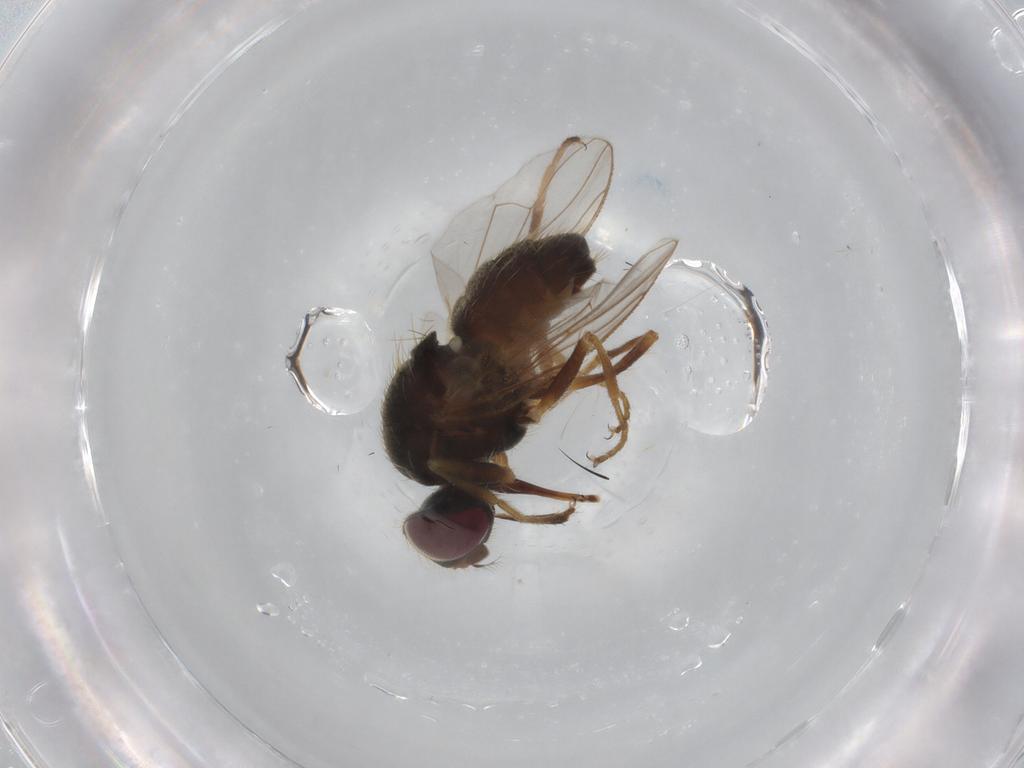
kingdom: Animalia
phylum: Arthropoda
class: Insecta
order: Diptera
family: Muscidae
